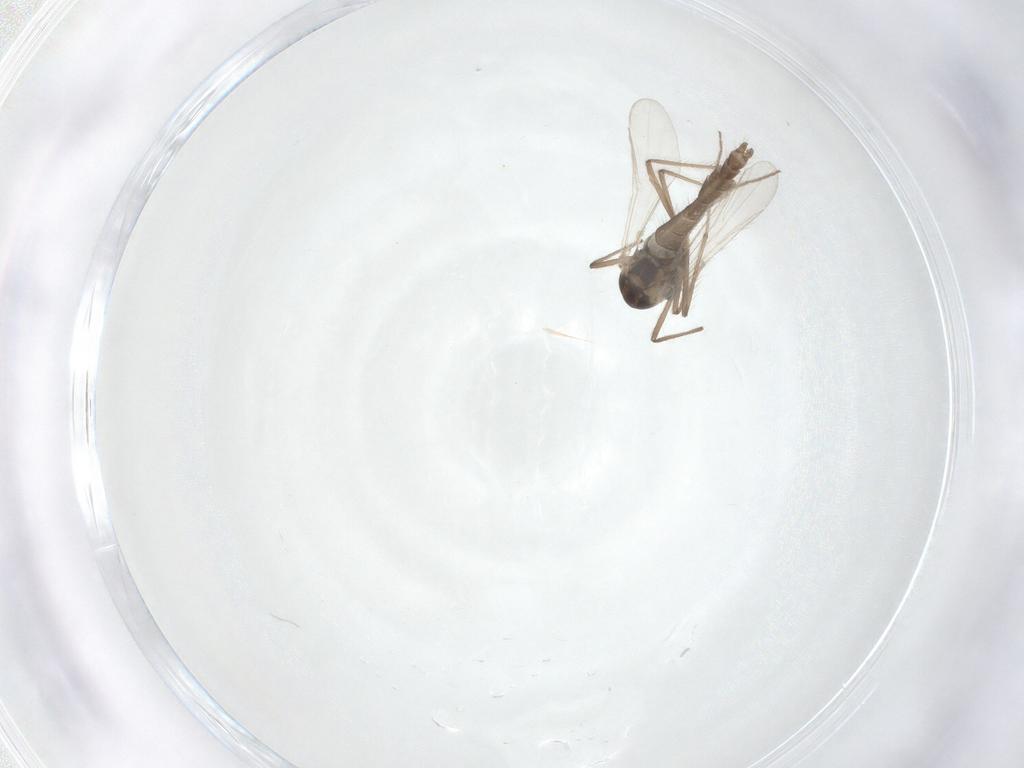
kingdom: Animalia
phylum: Arthropoda
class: Insecta
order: Diptera
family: Chironomidae
